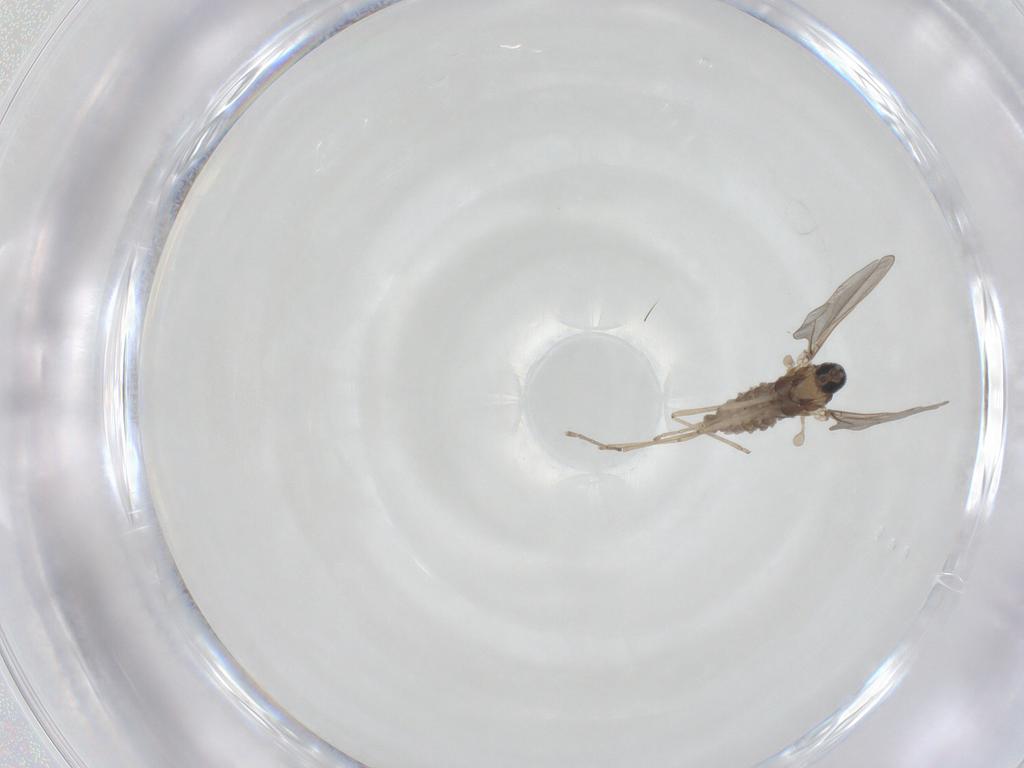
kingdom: Animalia
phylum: Arthropoda
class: Insecta
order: Diptera
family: Cecidomyiidae
